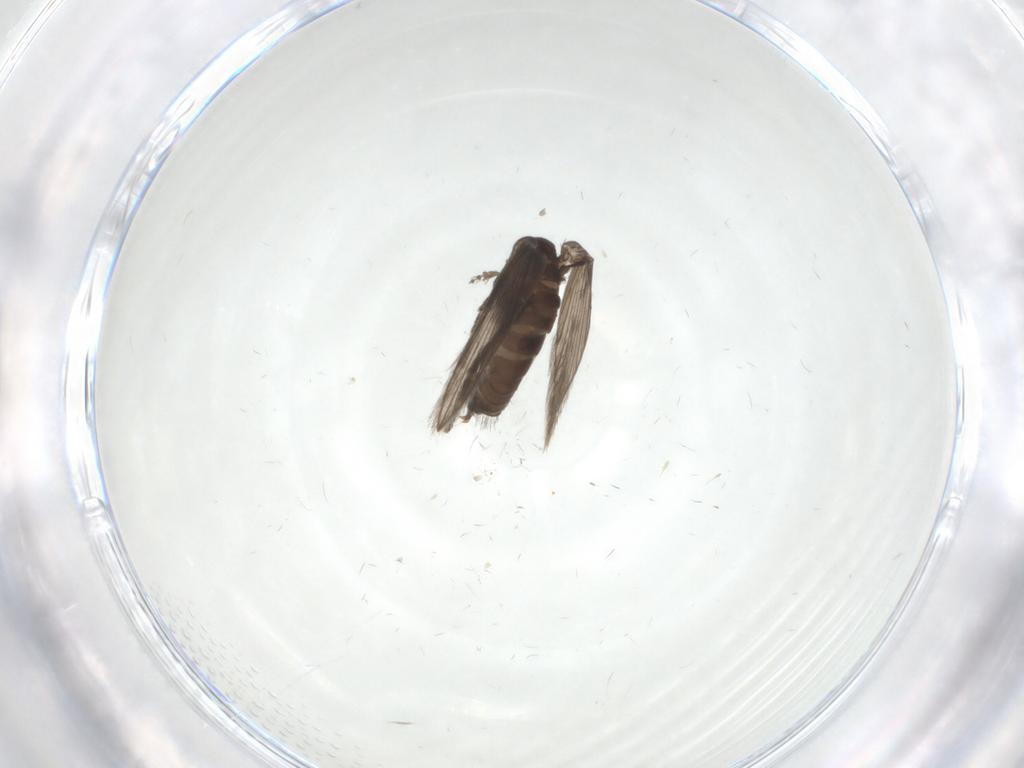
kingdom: Animalia
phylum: Arthropoda
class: Insecta
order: Diptera
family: Psychodidae
